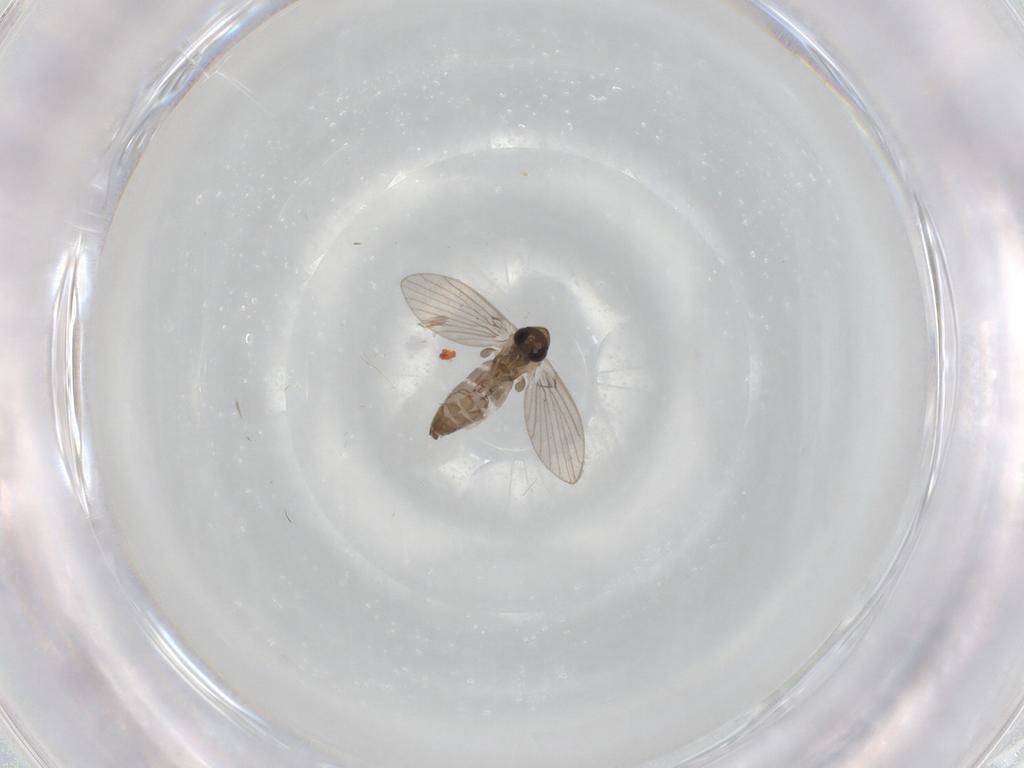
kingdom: Animalia
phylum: Arthropoda
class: Insecta
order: Diptera
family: Sphaeroceridae
